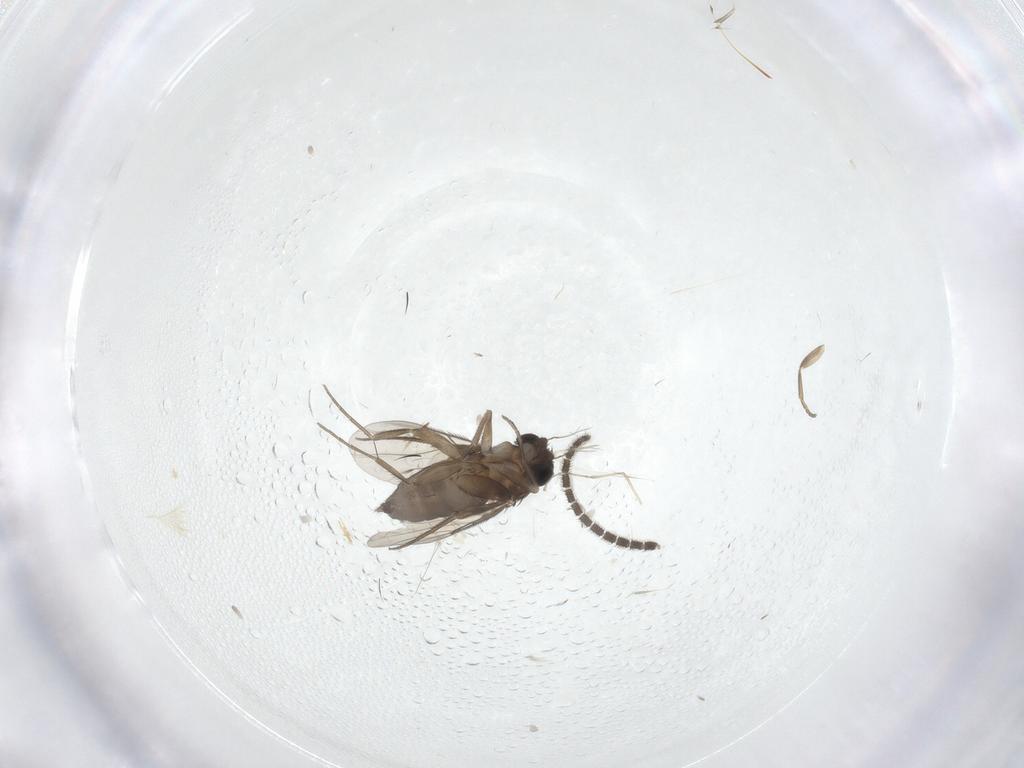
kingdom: Animalia
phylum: Arthropoda
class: Insecta
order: Diptera
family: Phoridae
